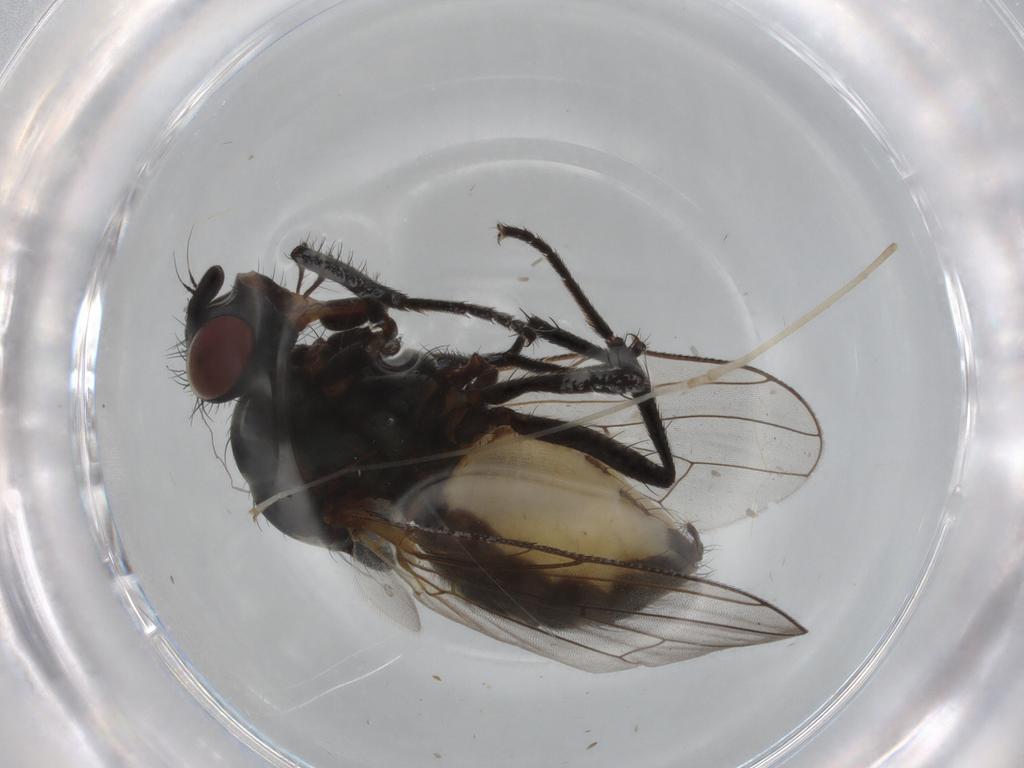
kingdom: Animalia
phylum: Arthropoda
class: Insecta
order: Diptera
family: Anthomyiidae
